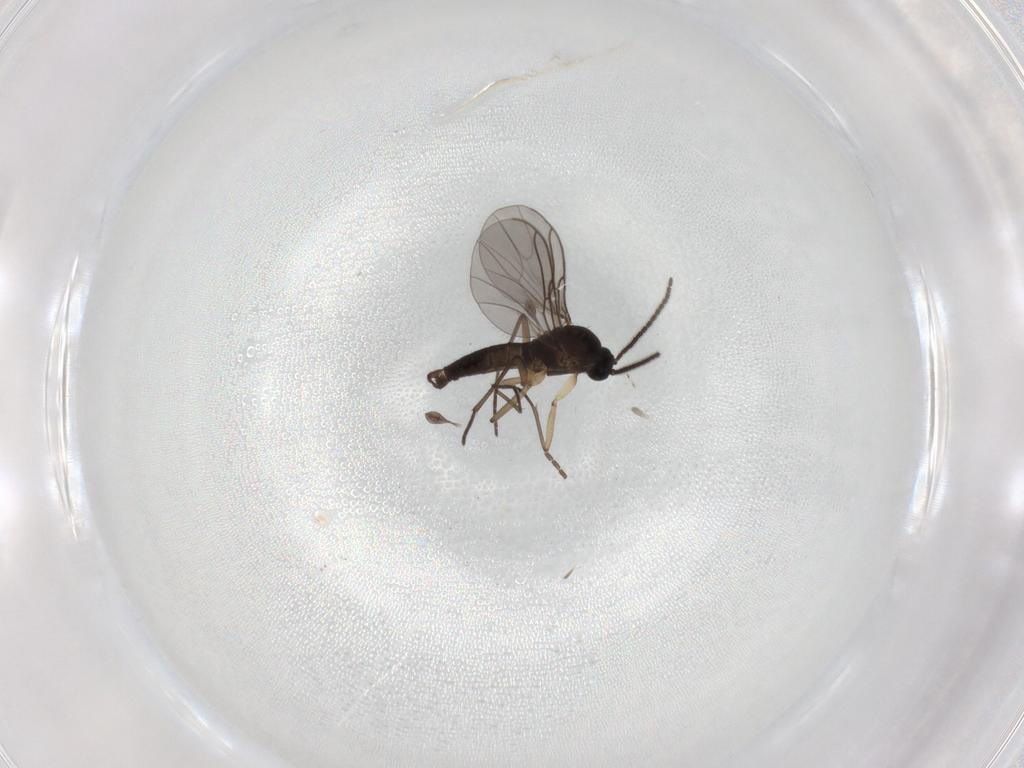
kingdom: Animalia
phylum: Arthropoda
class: Insecta
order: Diptera
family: Sciaridae
